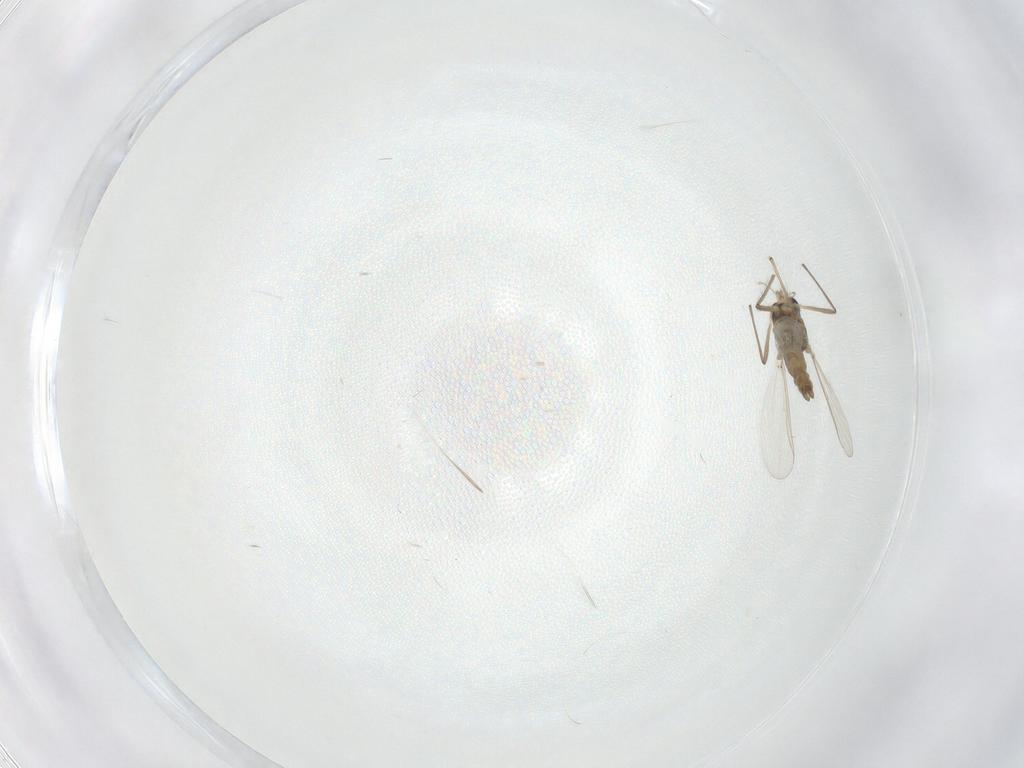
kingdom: Animalia
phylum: Arthropoda
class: Insecta
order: Diptera
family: Chironomidae
